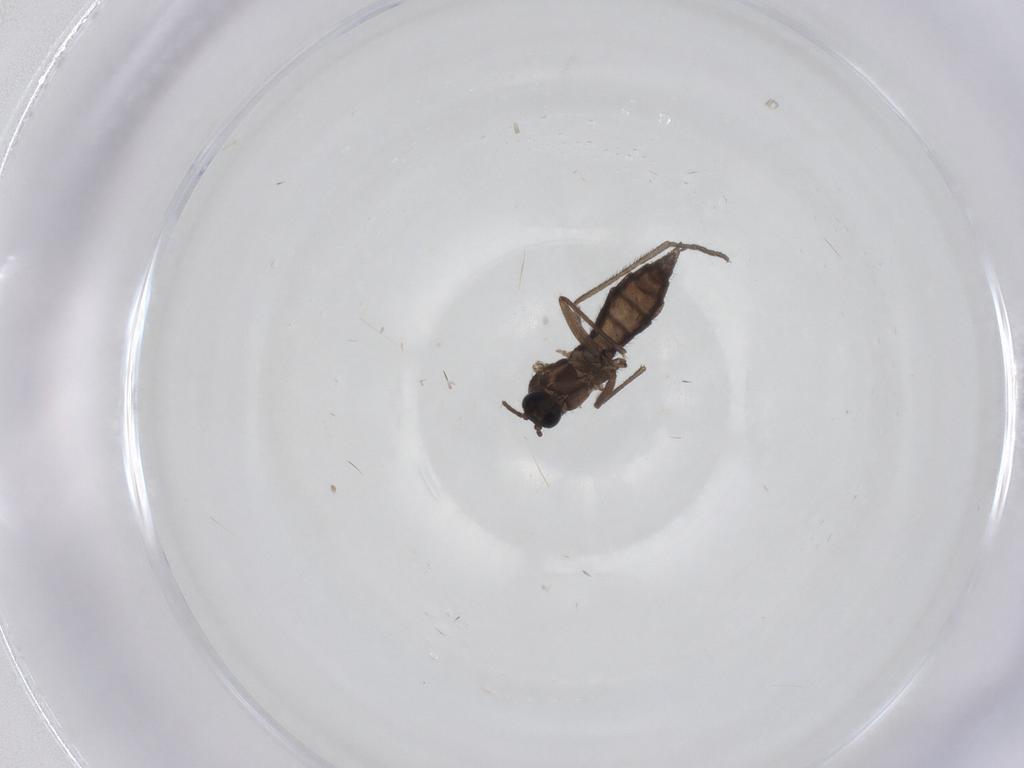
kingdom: Animalia
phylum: Arthropoda
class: Insecta
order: Diptera
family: Sciaridae
